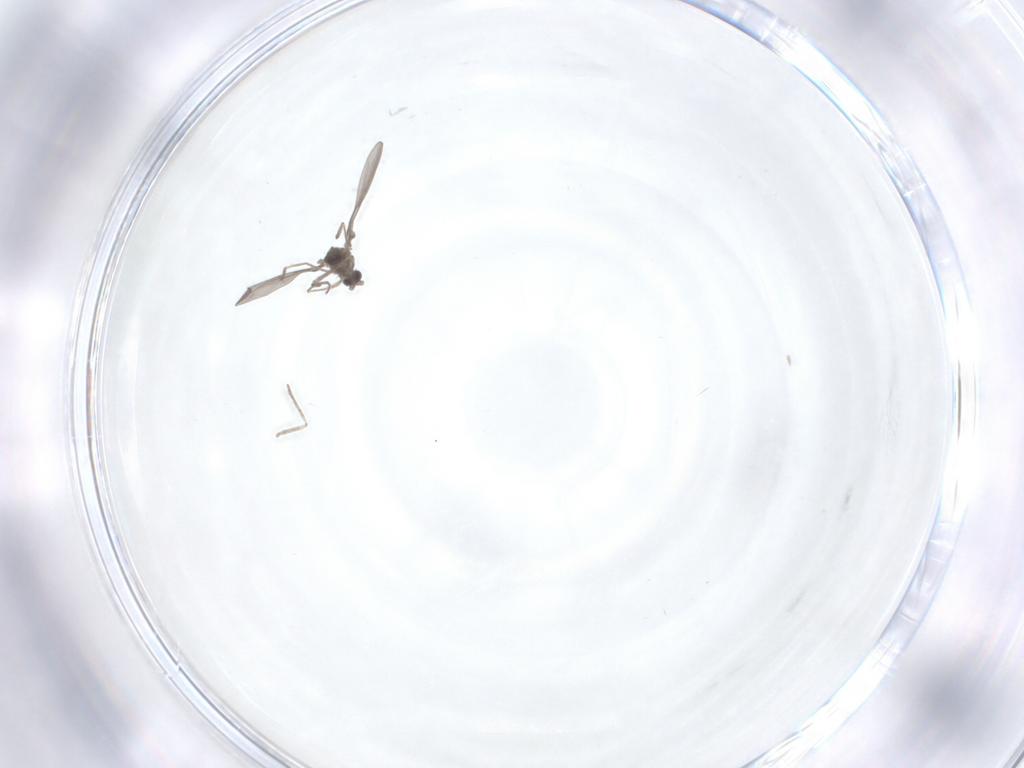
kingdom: Animalia
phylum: Arthropoda
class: Insecta
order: Diptera
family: Cecidomyiidae
